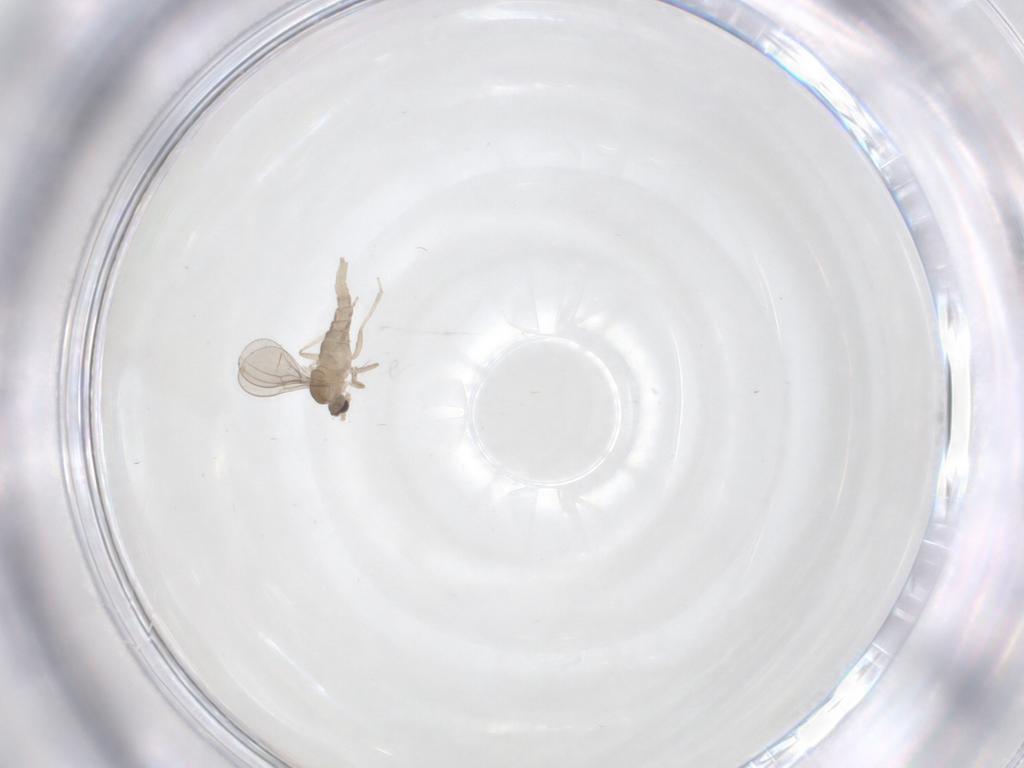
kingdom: Animalia
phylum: Arthropoda
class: Insecta
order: Diptera
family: Cecidomyiidae
